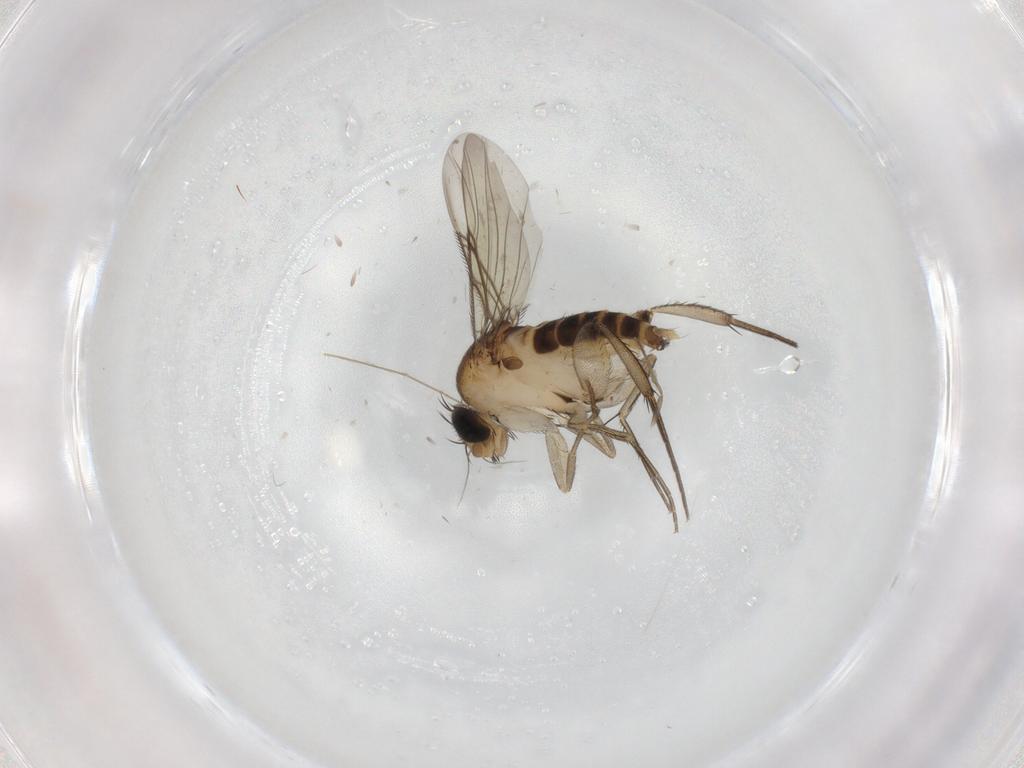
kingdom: Animalia
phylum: Arthropoda
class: Insecta
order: Diptera
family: Phoridae
